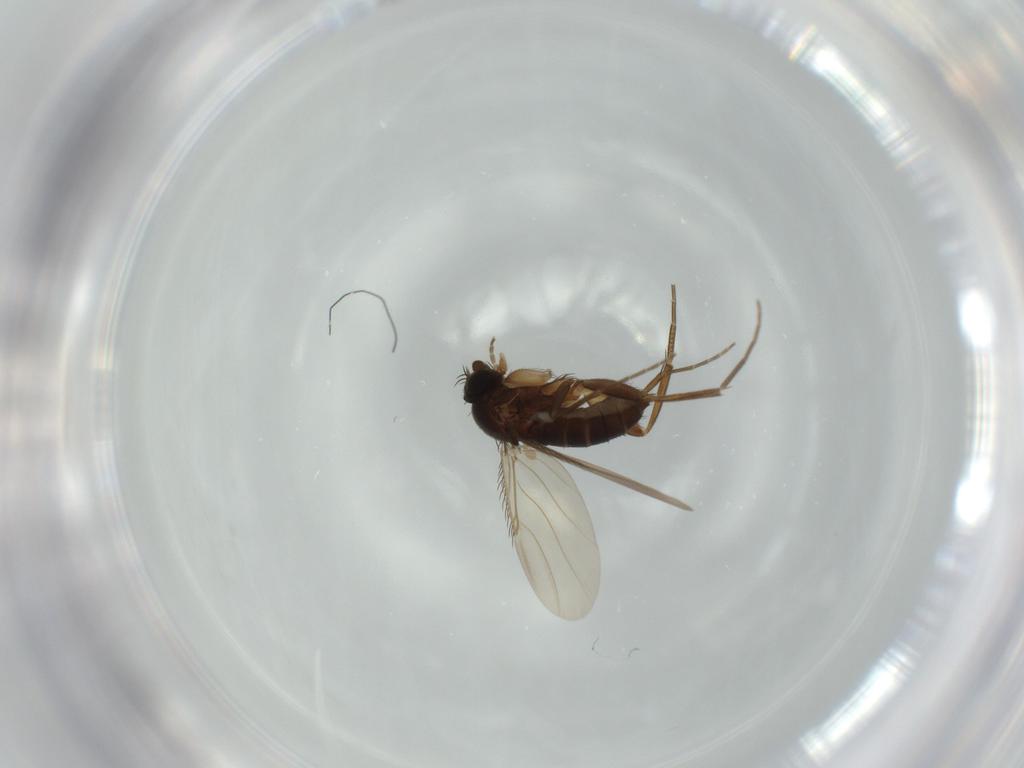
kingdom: Animalia
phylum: Arthropoda
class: Insecta
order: Diptera
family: Phoridae
